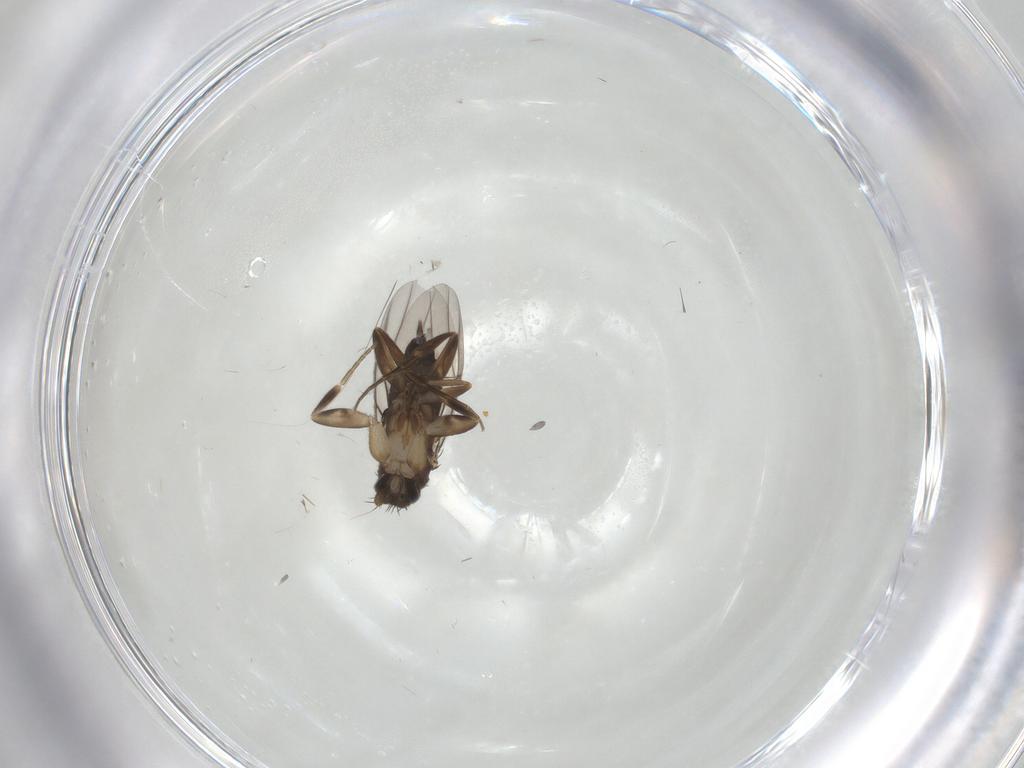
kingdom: Animalia
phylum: Arthropoda
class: Insecta
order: Diptera
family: Phoridae
